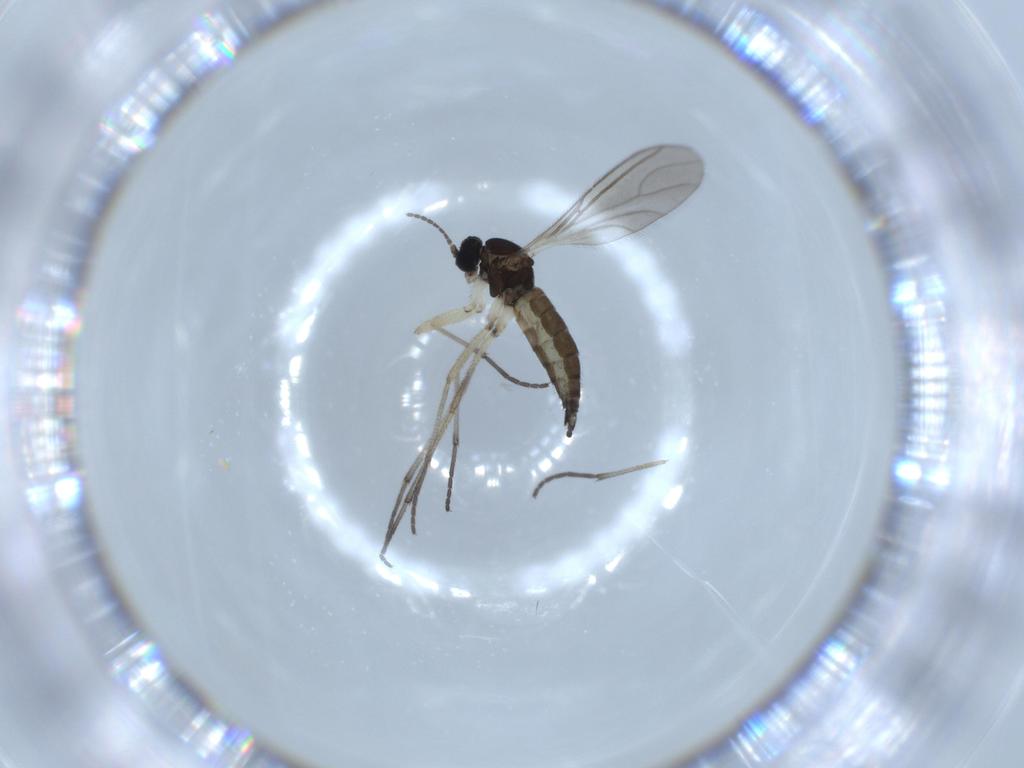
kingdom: Animalia
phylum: Arthropoda
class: Insecta
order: Diptera
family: Sciaridae
